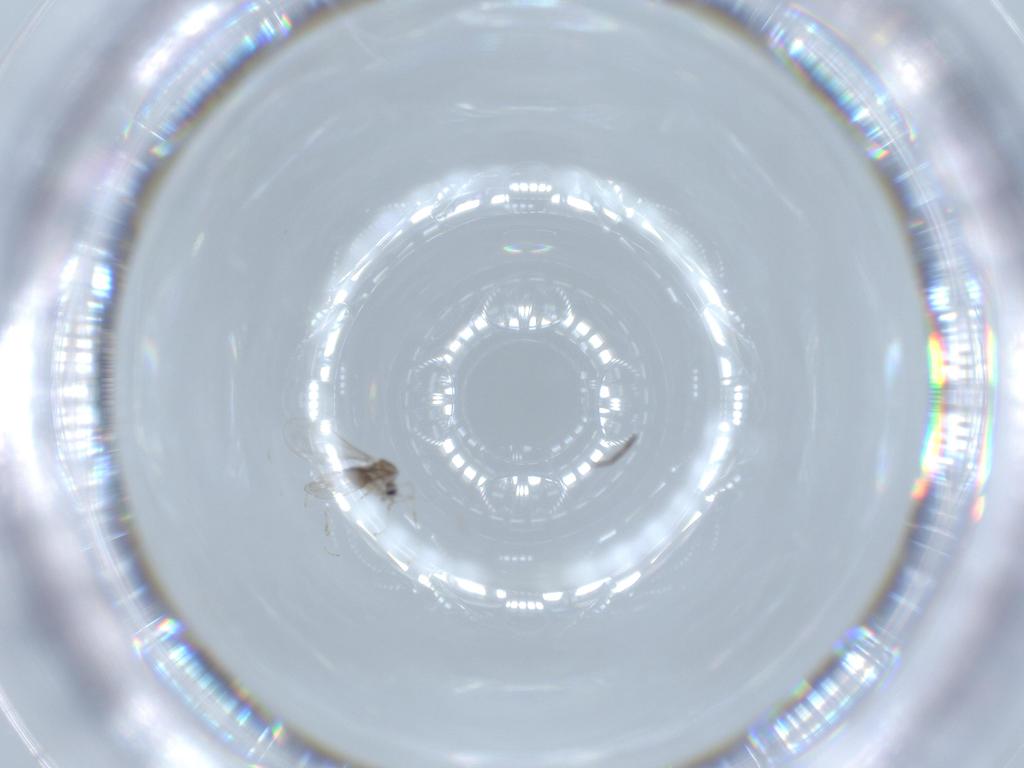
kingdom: Animalia
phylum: Arthropoda
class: Insecta
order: Diptera
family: Cecidomyiidae
